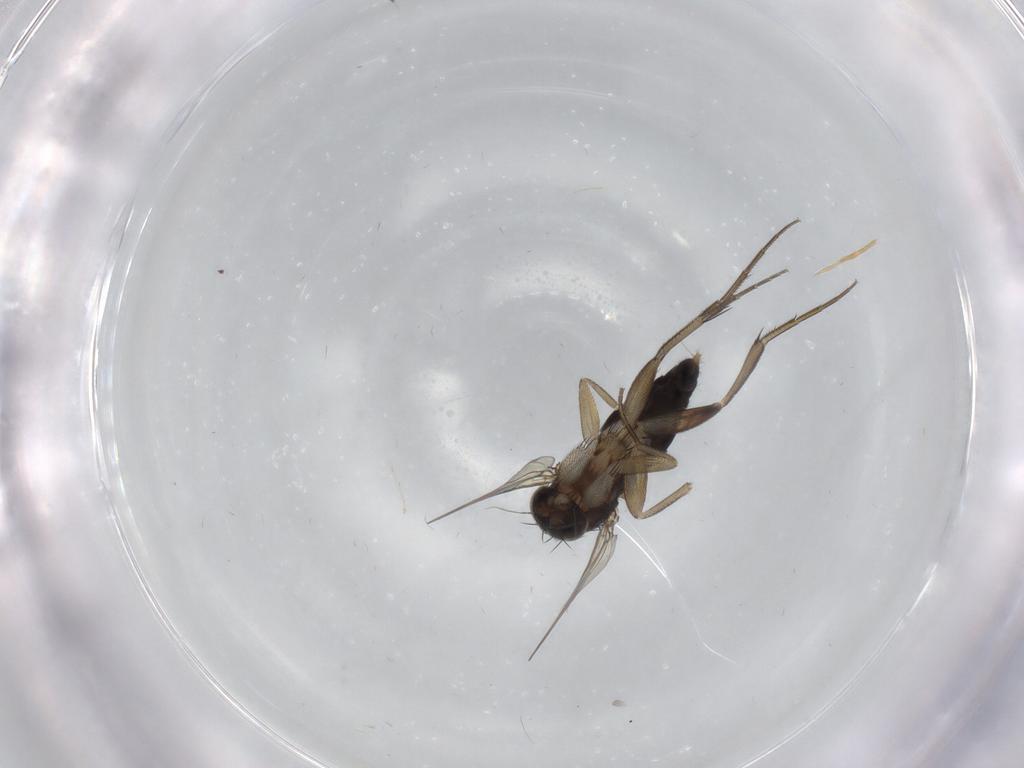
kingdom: Animalia
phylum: Arthropoda
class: Insecta
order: Diptera
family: Phoridae
